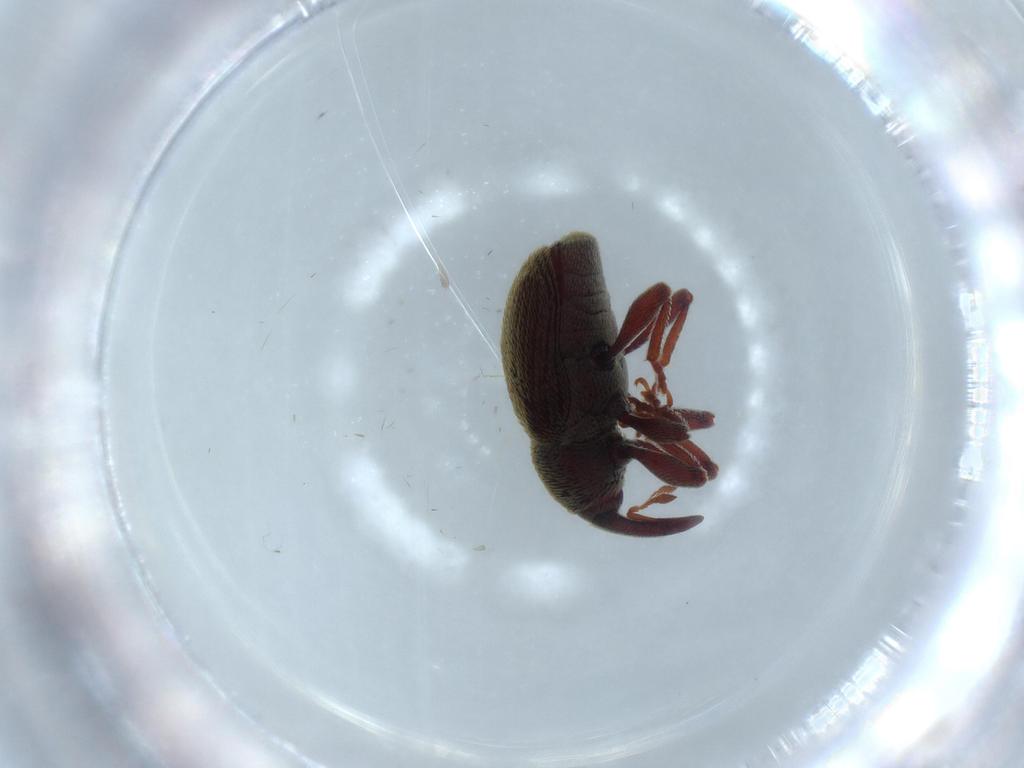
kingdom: Animalia
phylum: Arthropoda
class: Insecta
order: Coleoptera
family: Curculionidae
